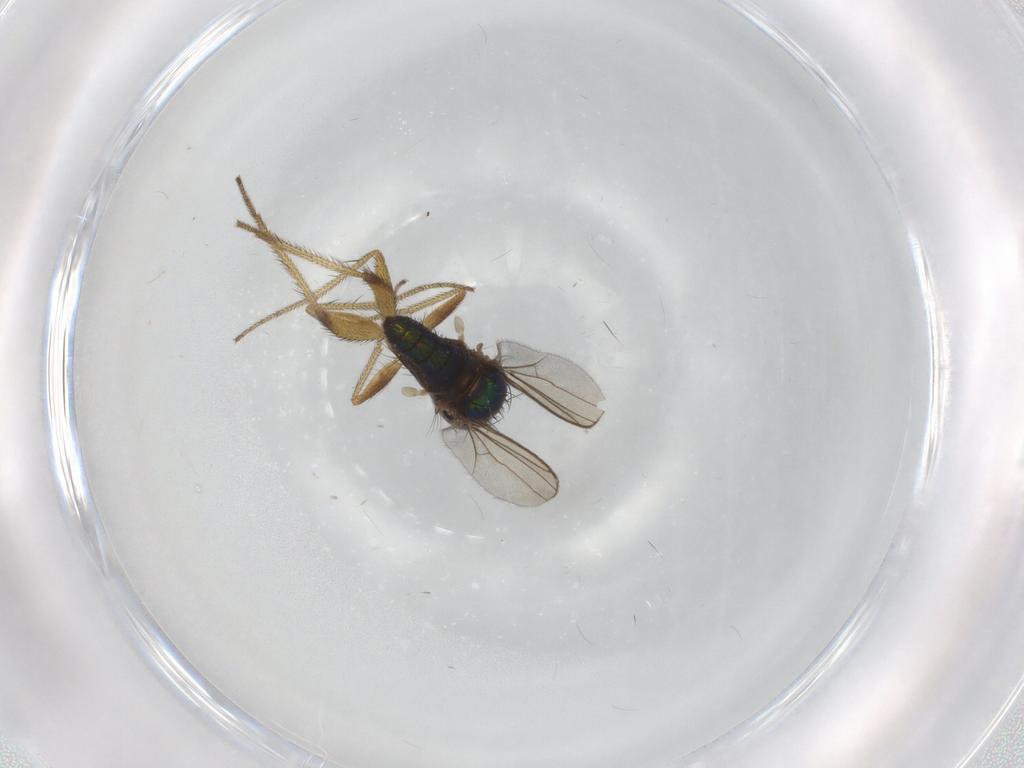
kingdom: Animalia
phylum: Arthropoda
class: Insecta
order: Diptera
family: Dolichopodidae
